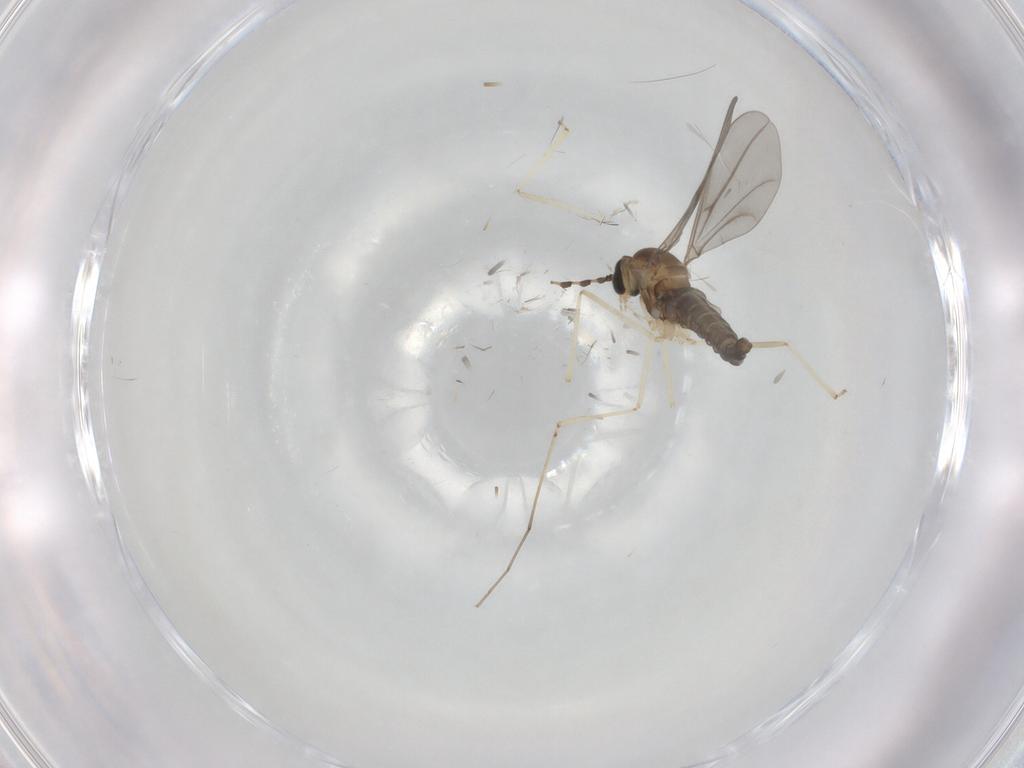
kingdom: Animalia
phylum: Arthropoda
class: Insecta
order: Diptera
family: Cecidomyiidae
